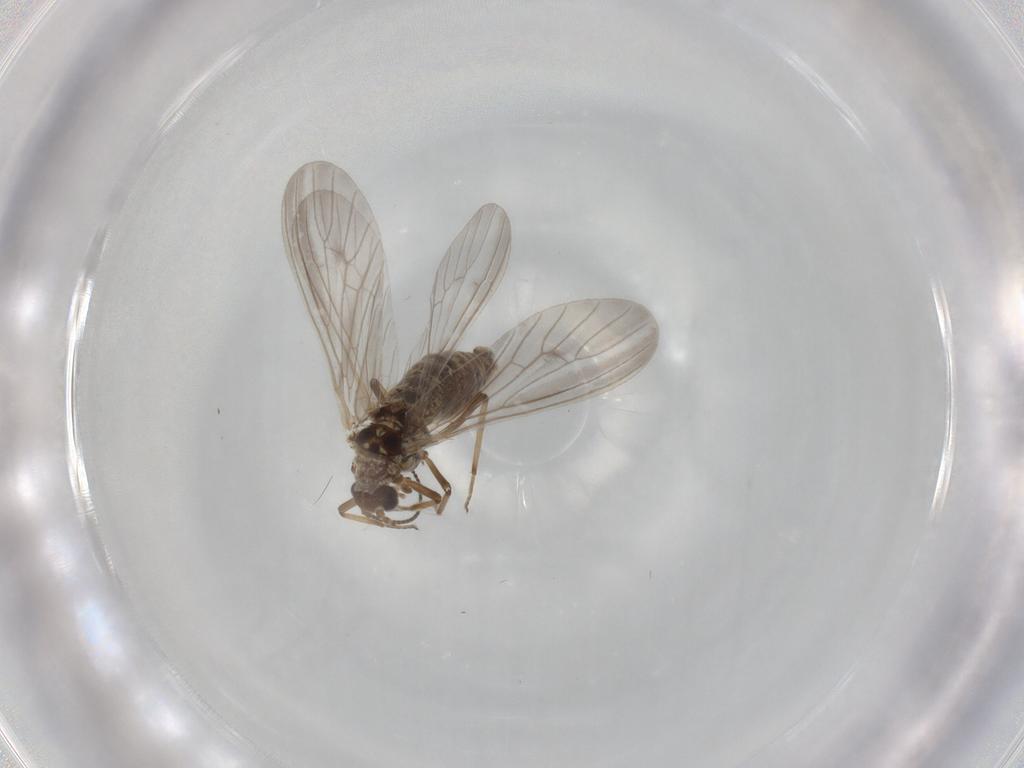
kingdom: Animalia
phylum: Arthropoda
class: Insecta
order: Neuroptera
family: Coniopterygidae
